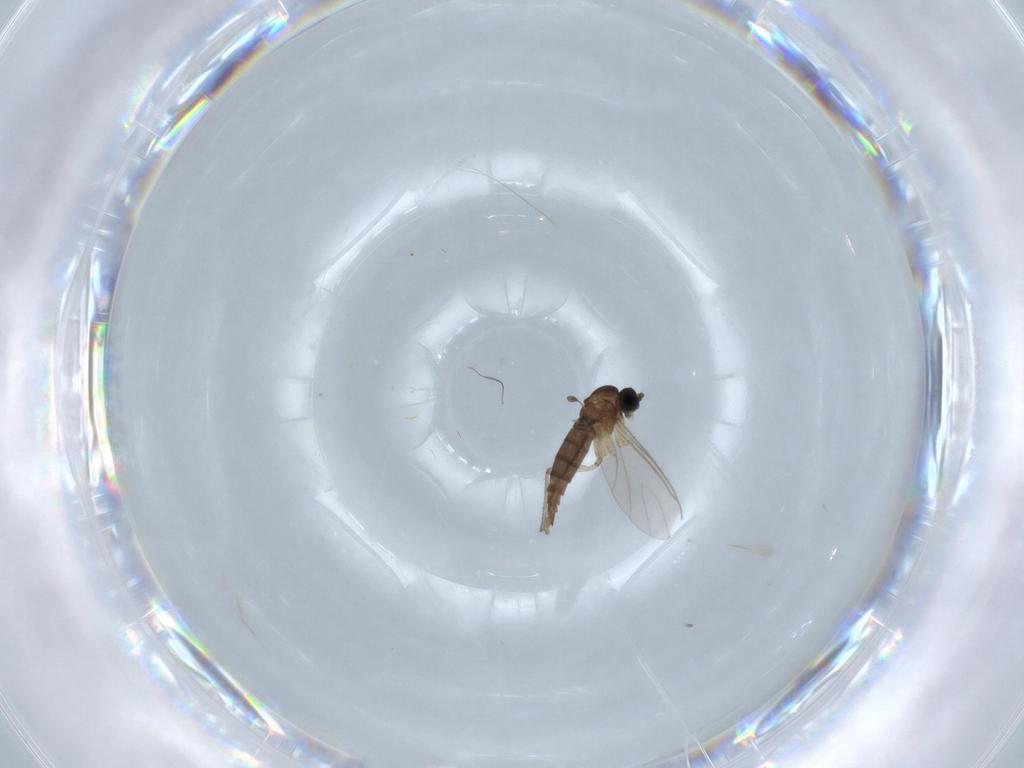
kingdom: Animalia
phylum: Arthropoda
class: Insecta
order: Diptera
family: Sciaridae
